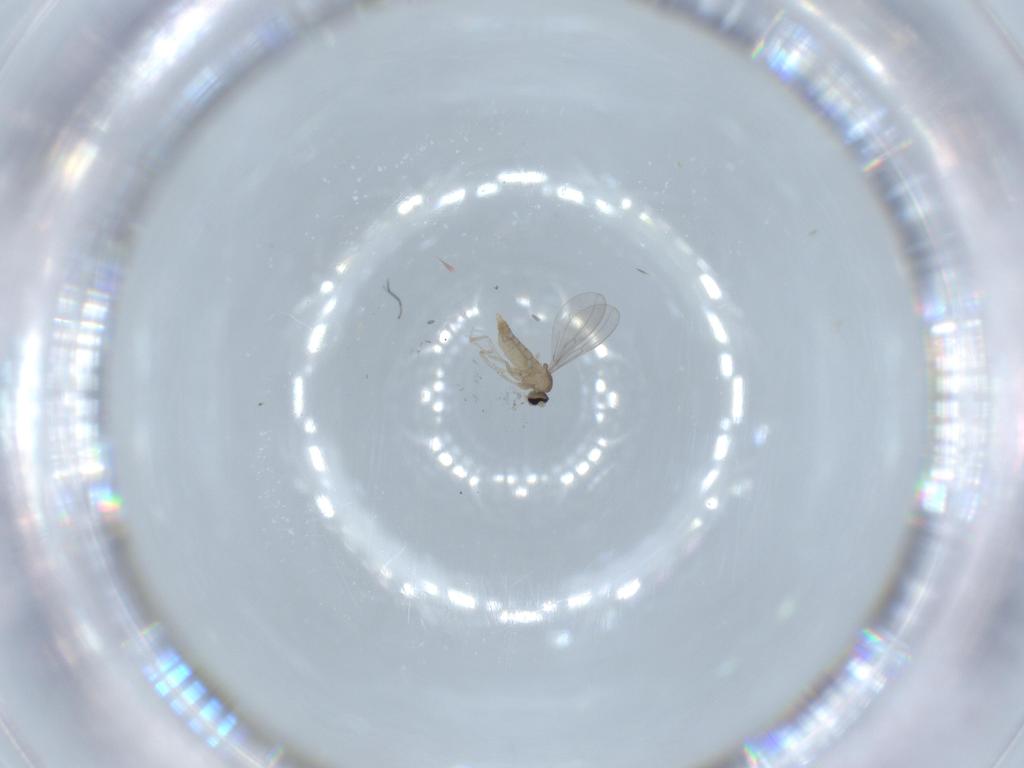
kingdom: Animalia
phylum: Arthropoda
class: Insecta
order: Diptera
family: Cecidomyiidae
